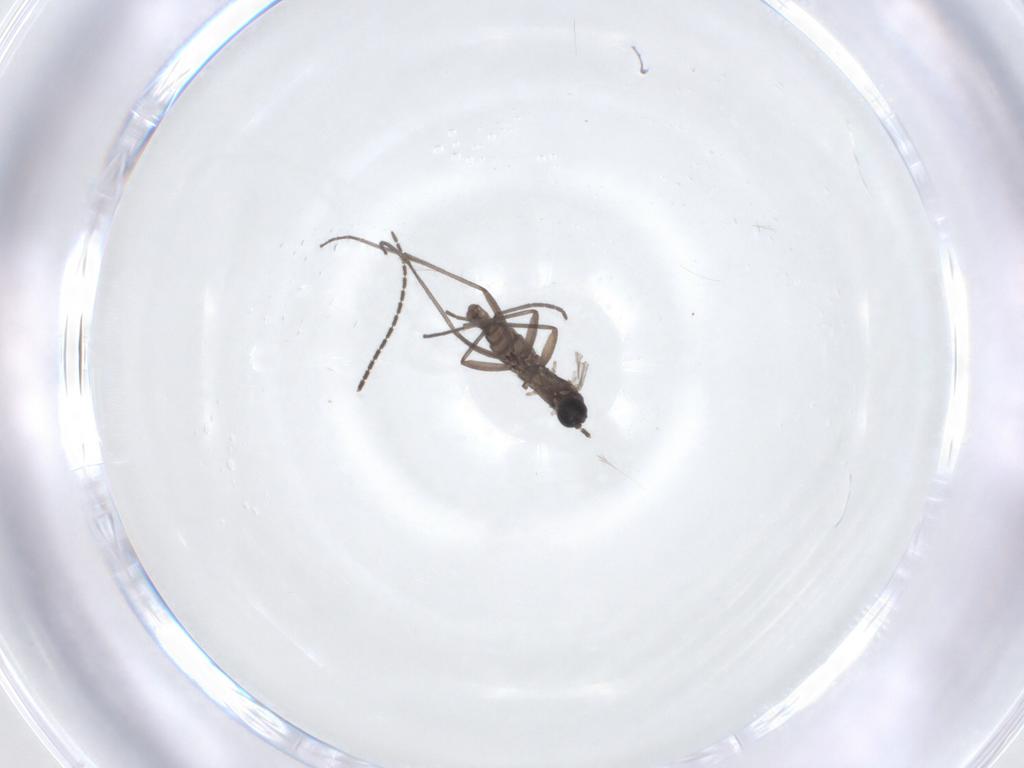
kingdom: Animalia
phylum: Arthropoda
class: Insecta
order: Diptera
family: Sciaridae
